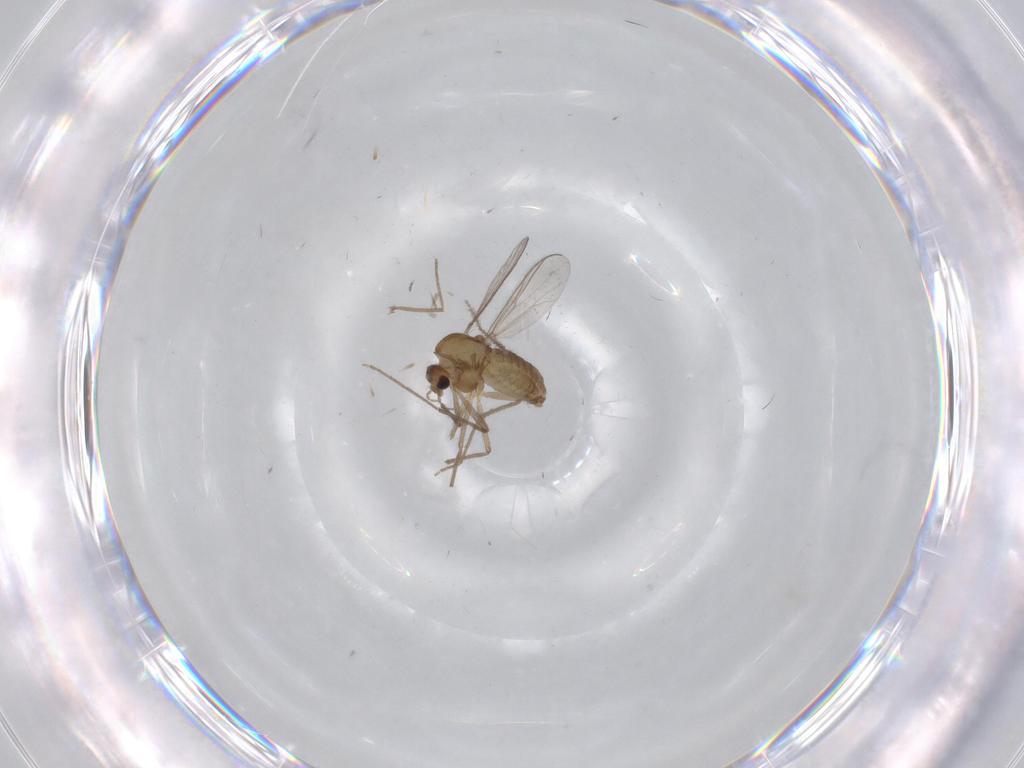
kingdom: Animalia
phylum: Arthropoda
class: Insecta
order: Diptera
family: Chironomidae
